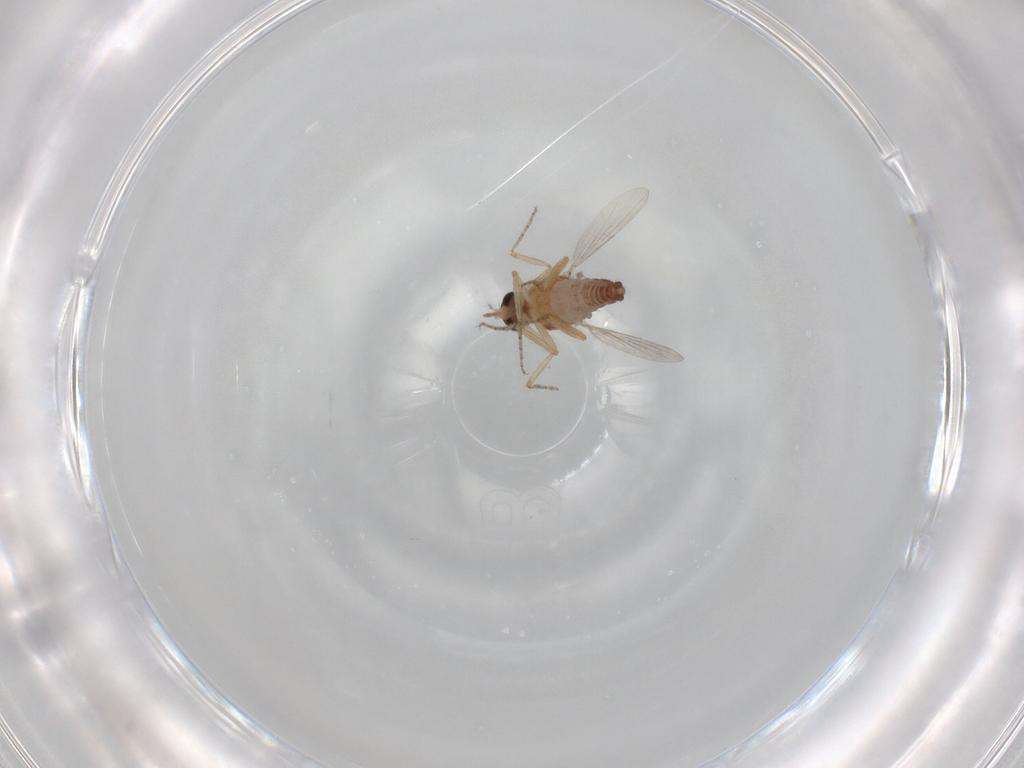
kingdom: Animalia
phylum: Arthropoda
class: Insecta
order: Diptera
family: Ceratopogonidae
